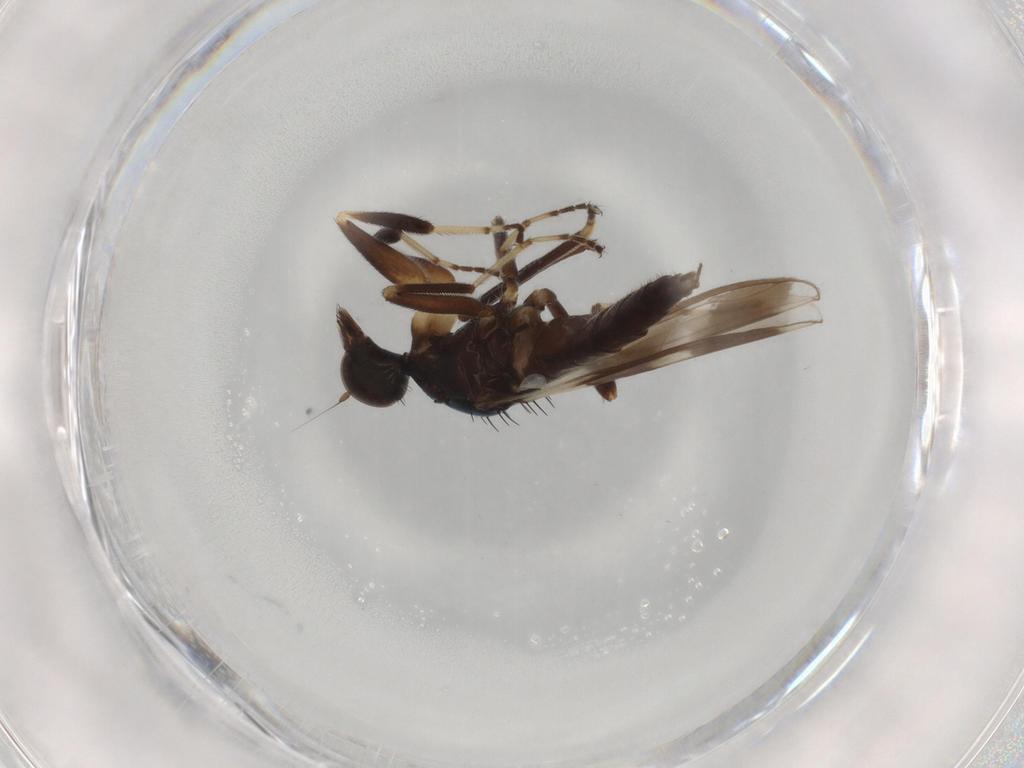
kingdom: Animalia
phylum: Arthropoda
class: Insecta
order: Diptera
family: Hybotidae
